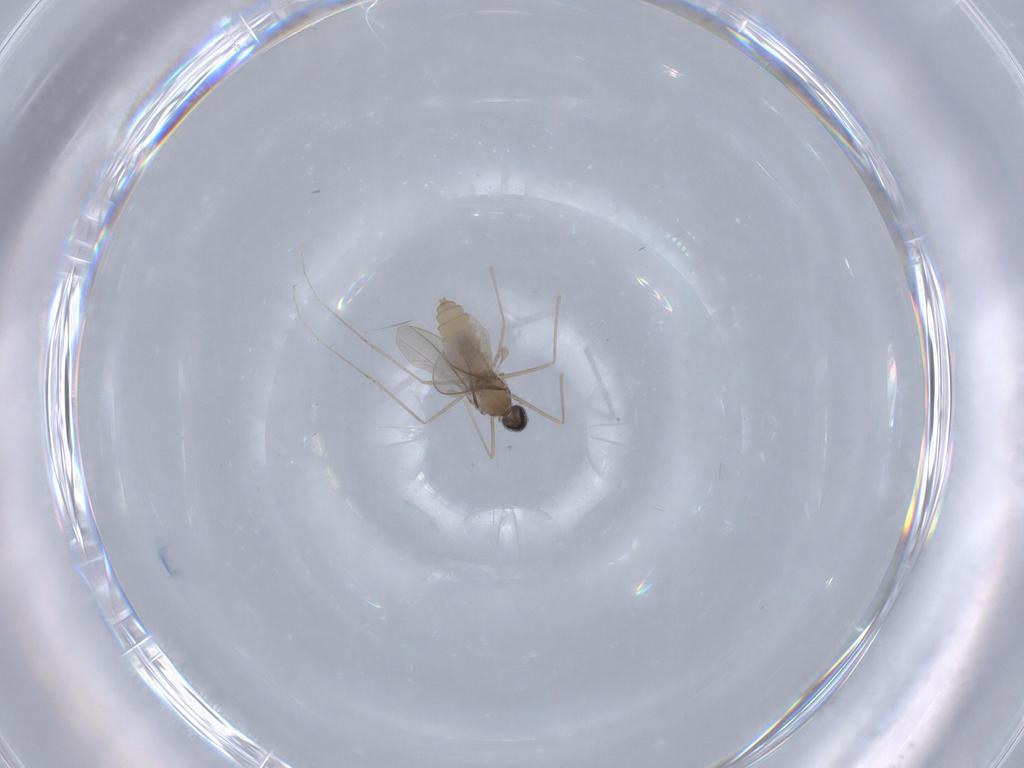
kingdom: Animalia
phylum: Arthropoda
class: Insecta
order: Diptera
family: Cecidomyiidae
